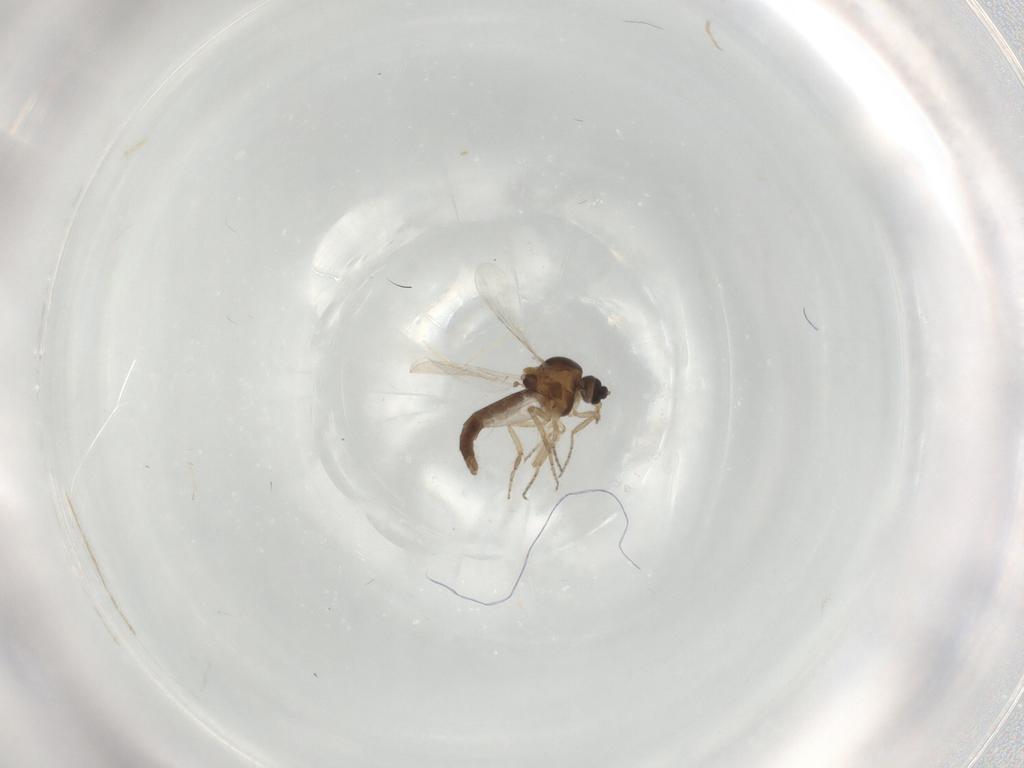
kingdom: Animalia
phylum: Arthropoda
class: Insecta
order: Diptera
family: Ceratopogonidae
